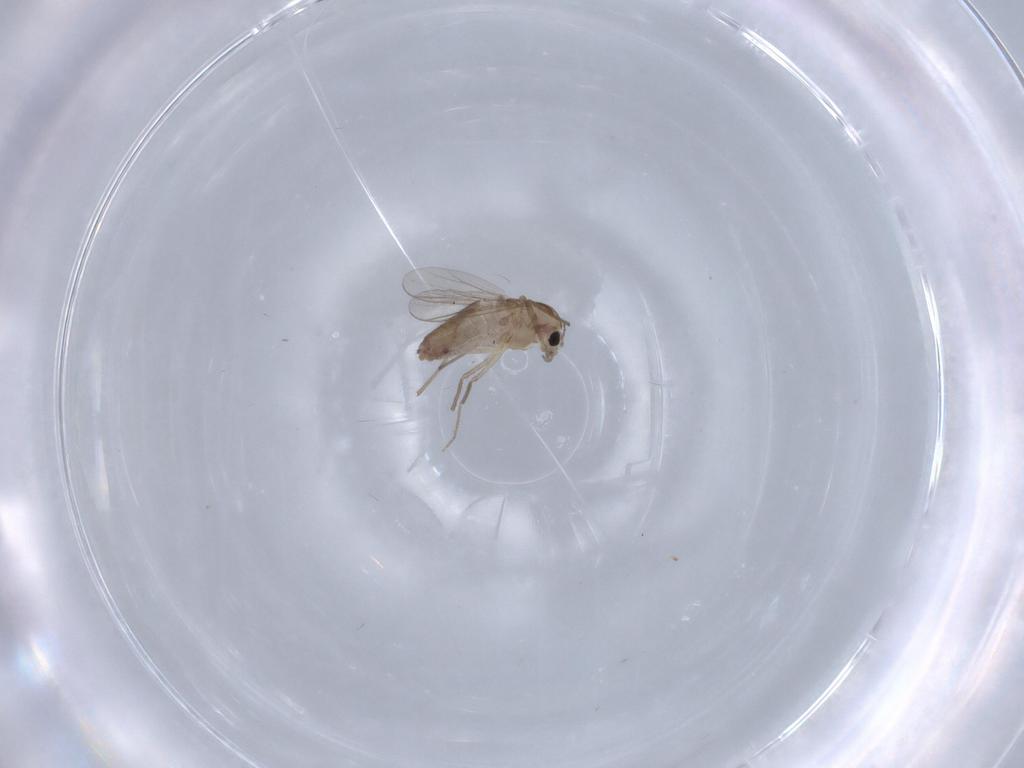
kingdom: Animalia
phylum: Arthropoda
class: Insecta
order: Diptera
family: Chironomidae
